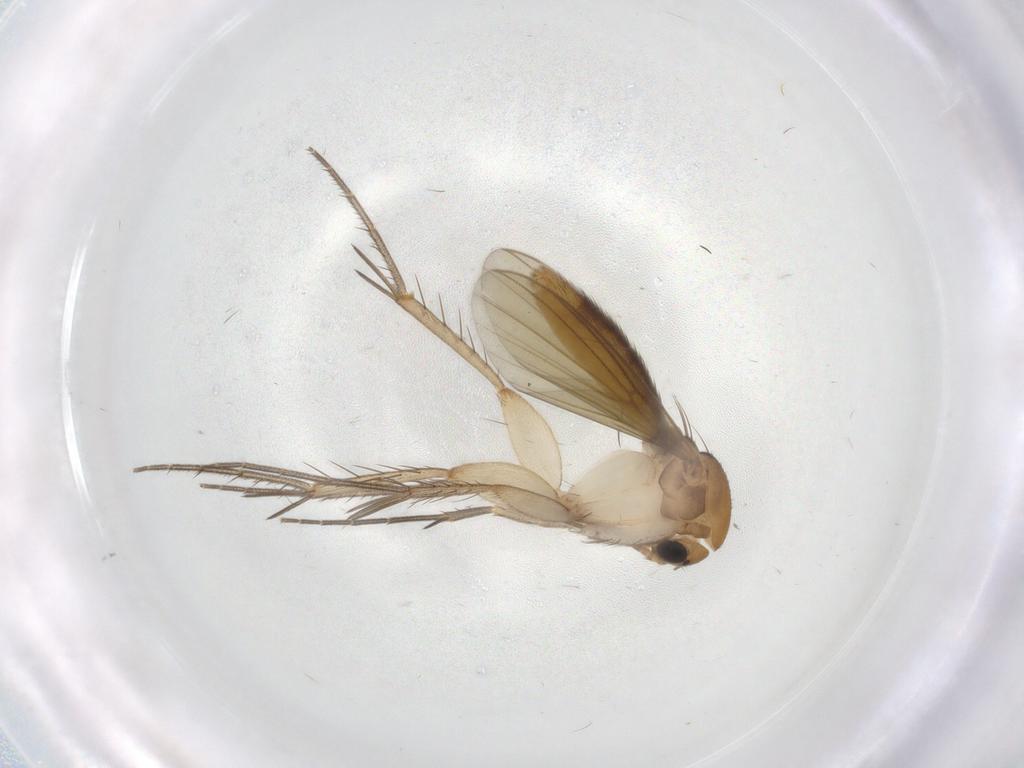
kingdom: Animalia
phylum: Arthropoda
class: Insecta
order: Diptera
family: Mycetophilidae
